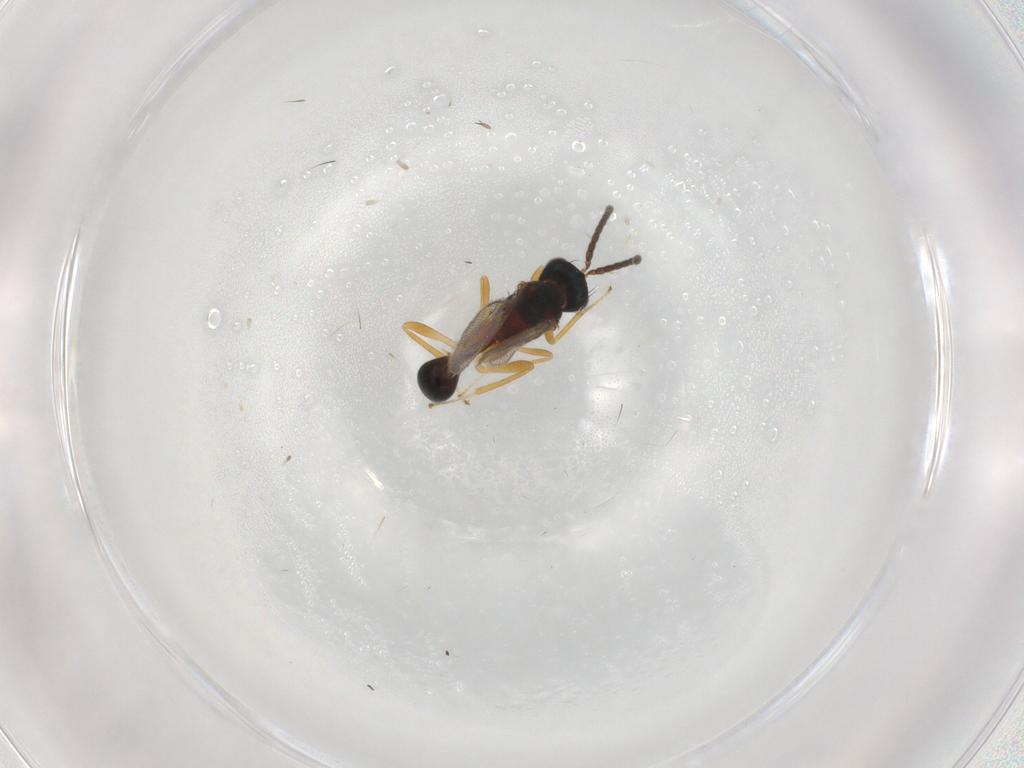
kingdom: Animalia
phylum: Arthropoda
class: Insecta
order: Hymenoptera
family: Diparidae
